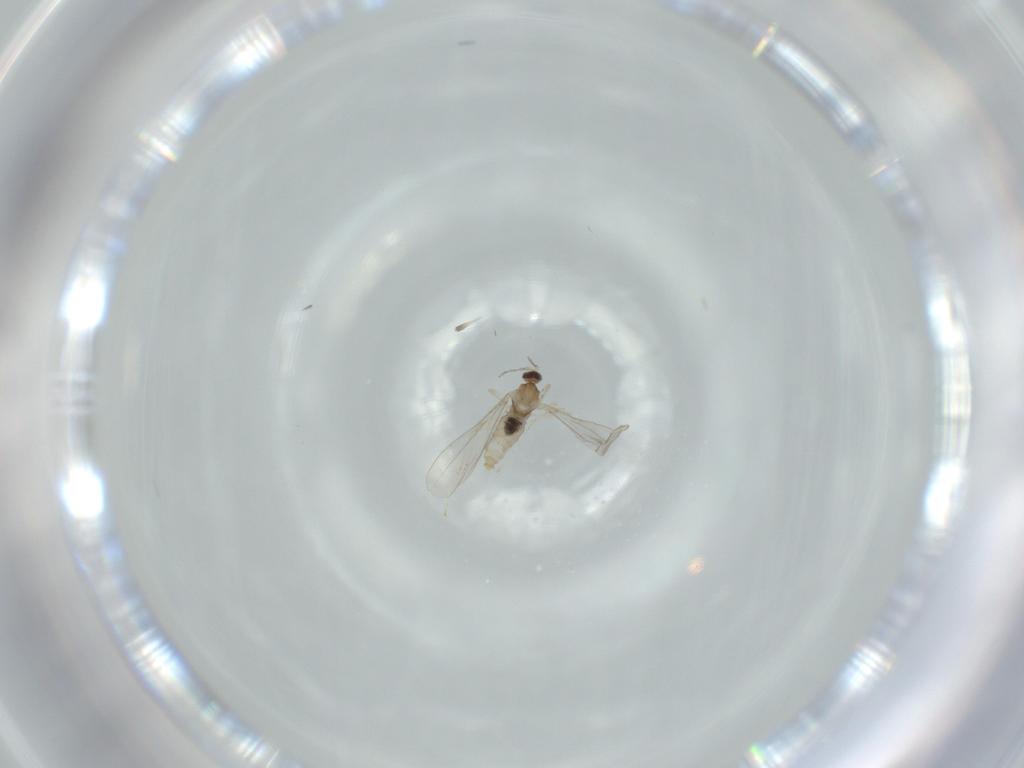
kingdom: Animalia
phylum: Arthropoda
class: Insecta
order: Diptera
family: Cecidomyiidae
